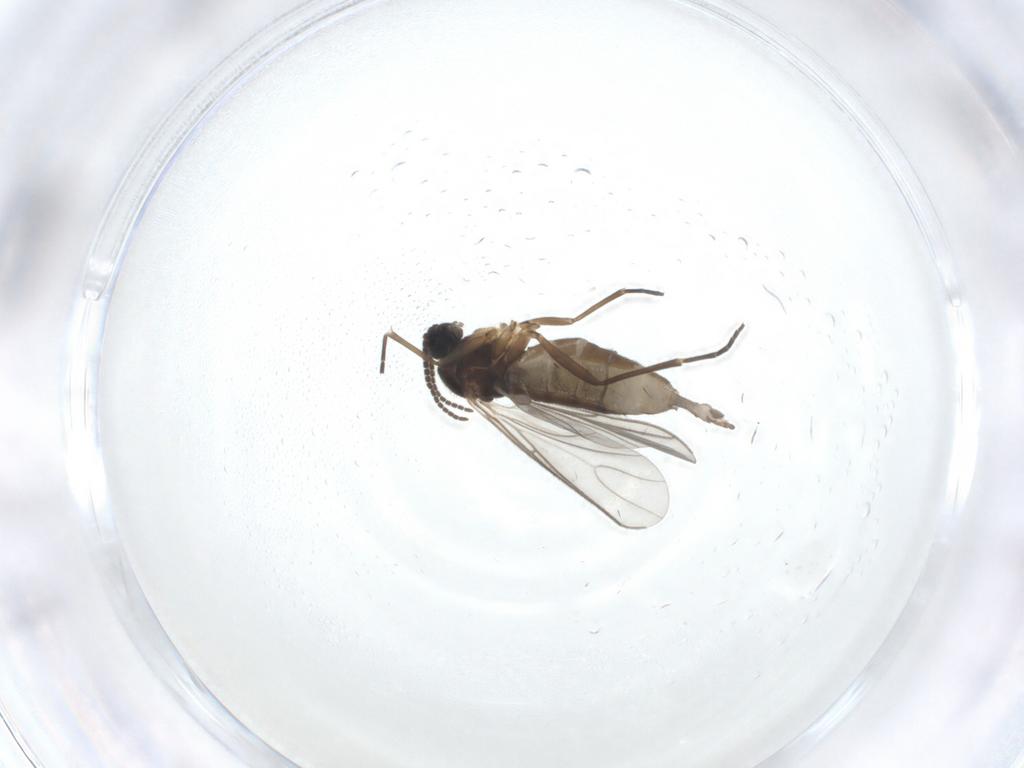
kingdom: Animalia
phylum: Arthropoda
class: Insecta
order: Diptera
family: Sciaridae
